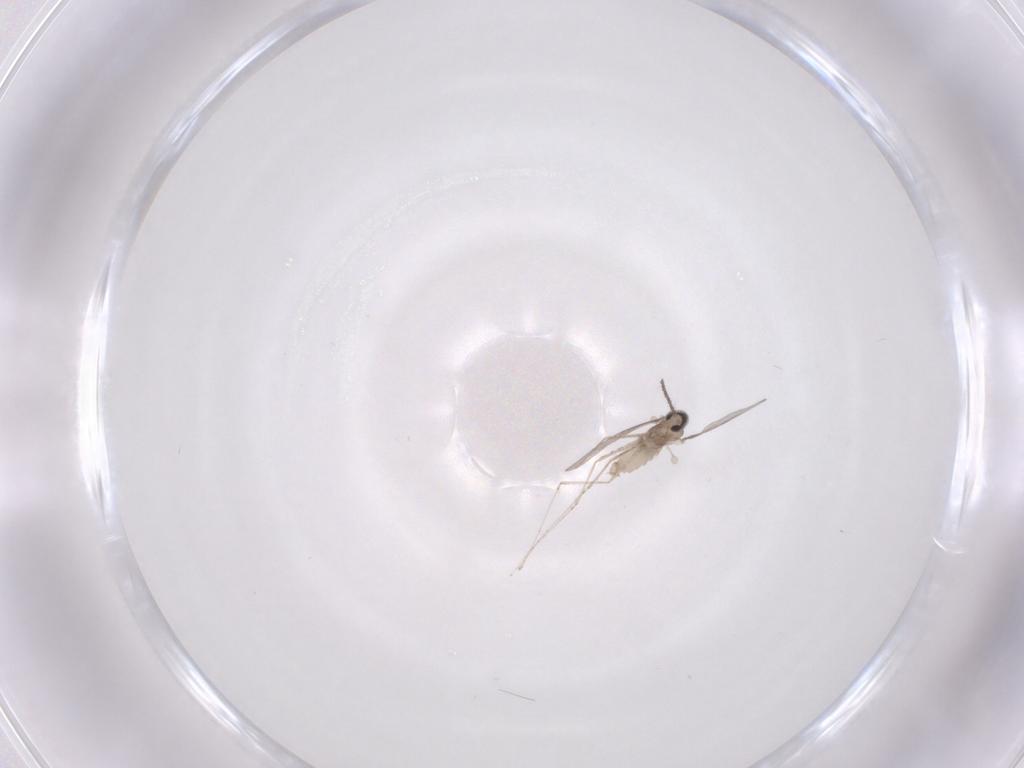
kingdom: Animalia
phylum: Arthropoda
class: Insecta
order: Diptera
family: Cecidomyiidae
